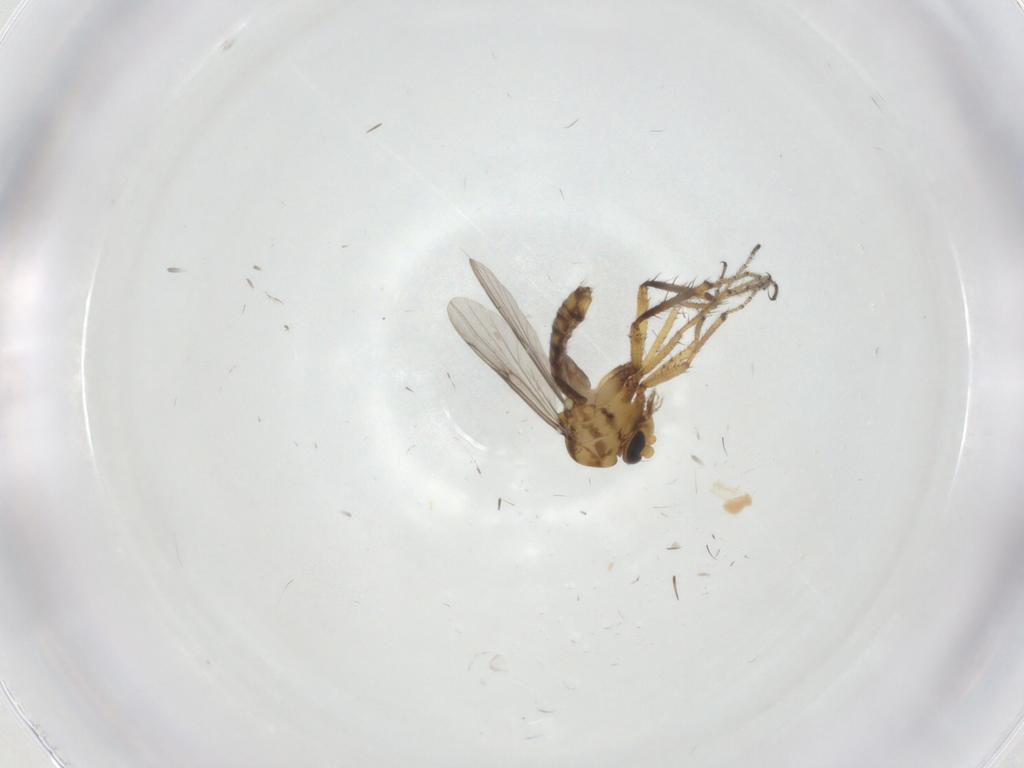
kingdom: Animalia
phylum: Arthropoda
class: Insecta
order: Diptera
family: Ceratopogonidae
